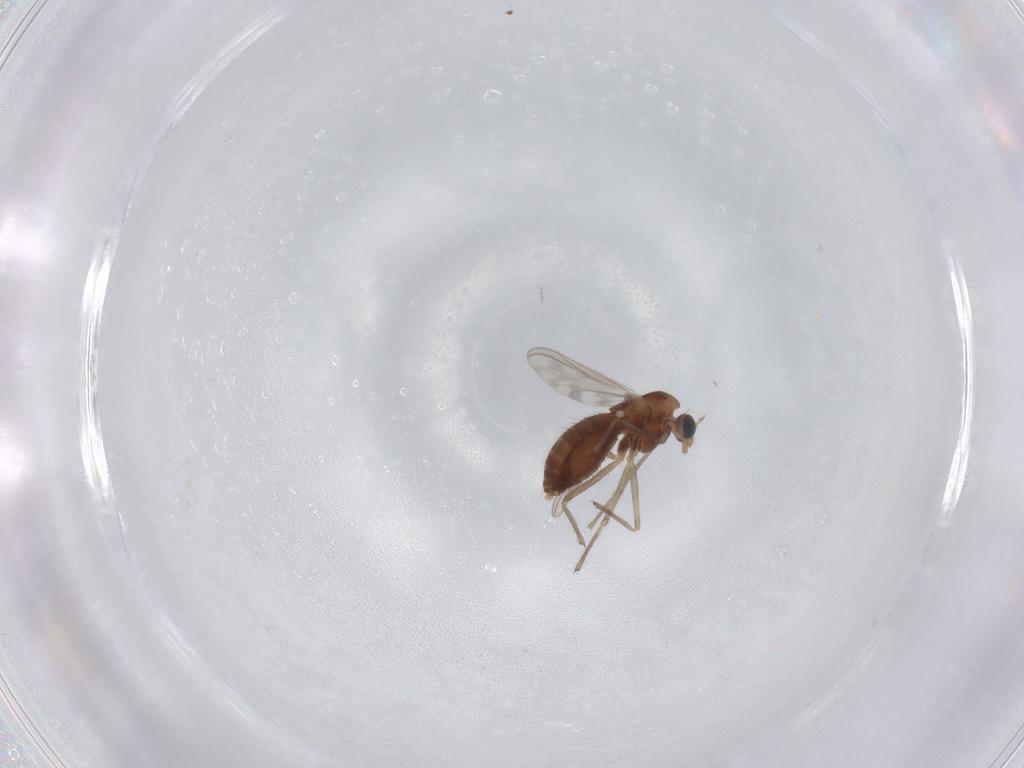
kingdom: Animalia
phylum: Arthropoda
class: Insecta
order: Diptera
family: Chironomidae
